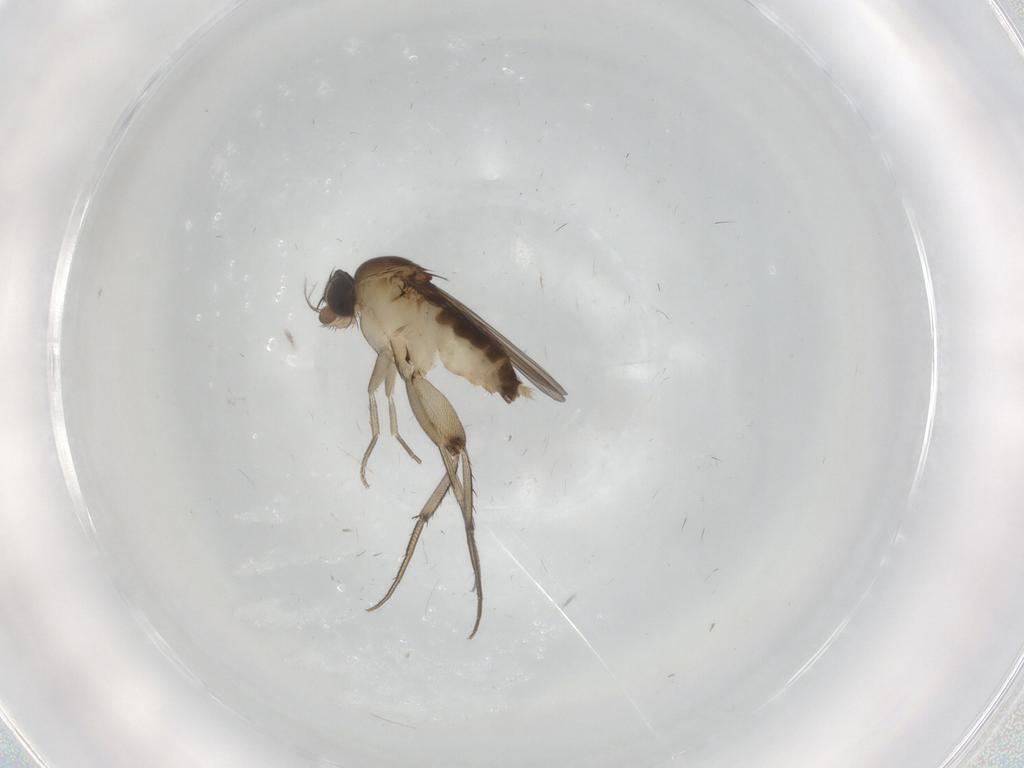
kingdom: Animalia
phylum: Arthropoda
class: Insecta
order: Diptera
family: Phoridae
